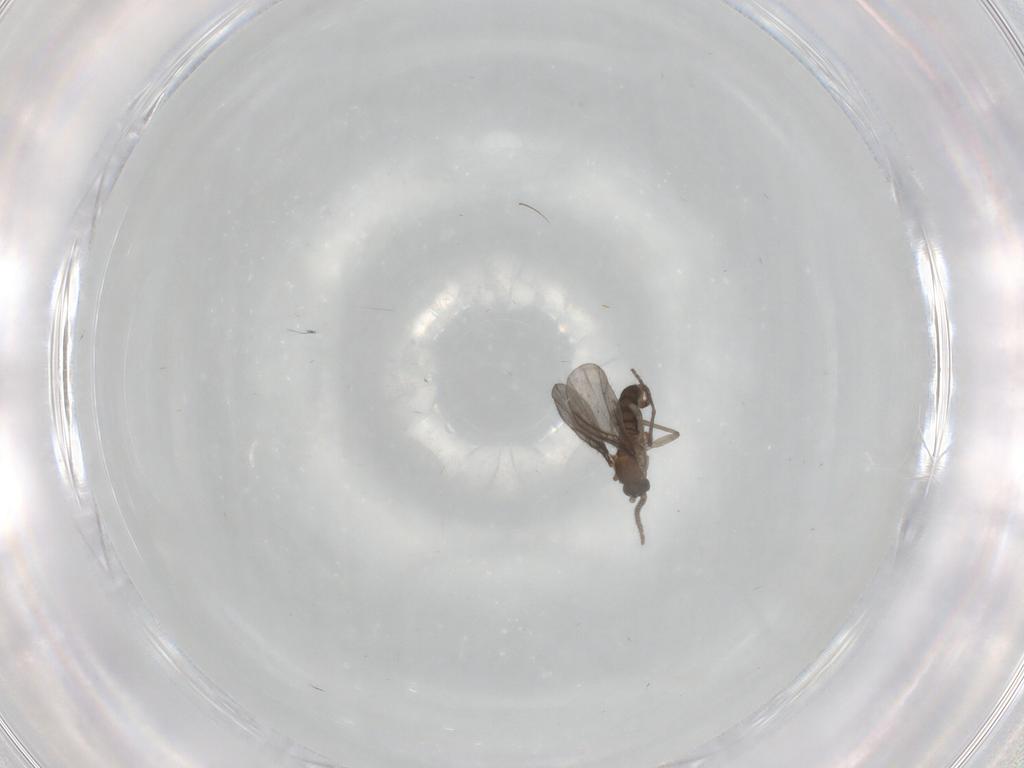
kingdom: Animalia
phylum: Arthropoda
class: Insecta
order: Diptera
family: Sciaridae
